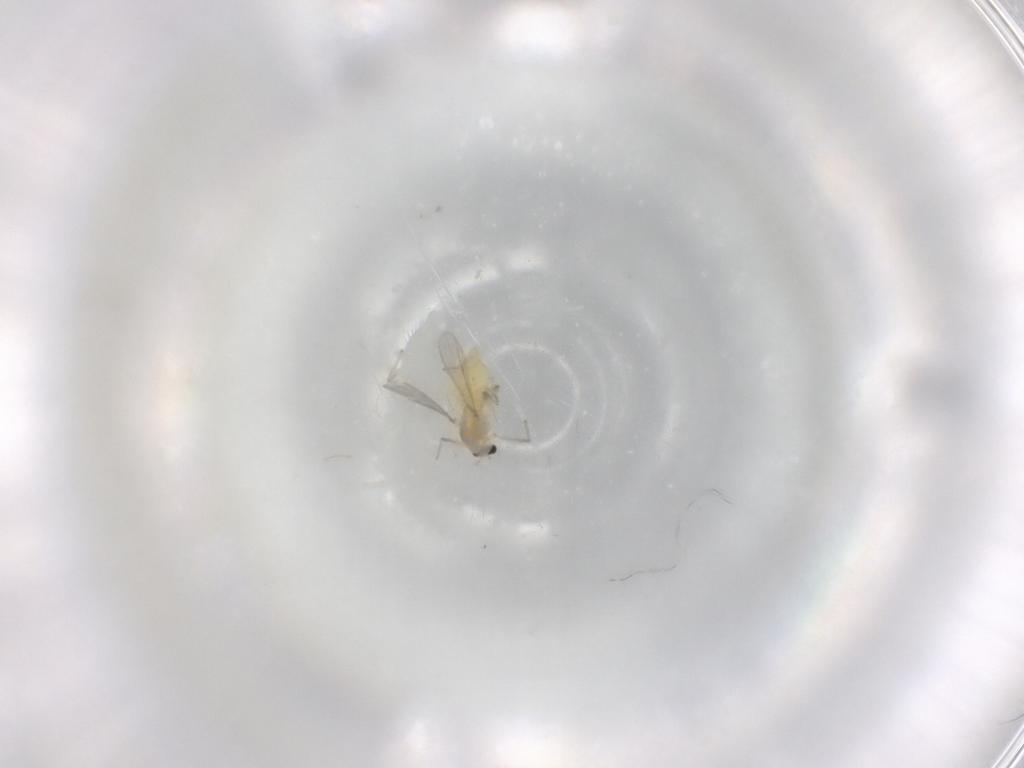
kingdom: Animalia
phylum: Arthropoda
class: Insecta
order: Diptera
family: Chironomidae
